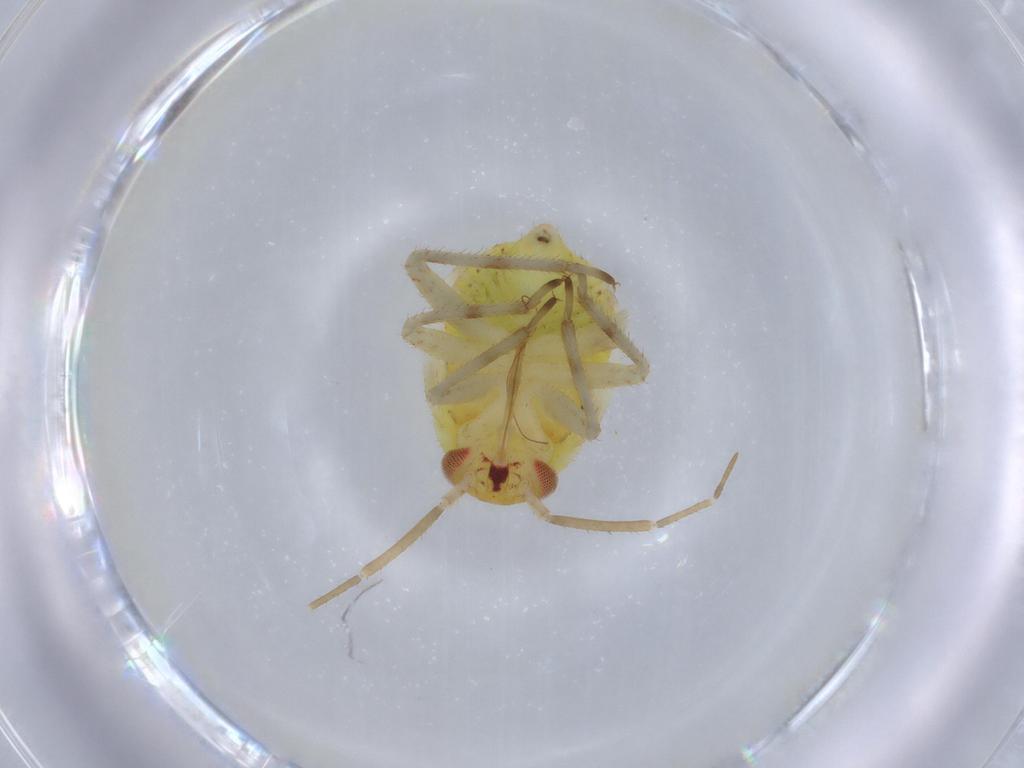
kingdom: Animalia
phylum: Arthropoda
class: Insecta
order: Hemiptera
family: Miridae
